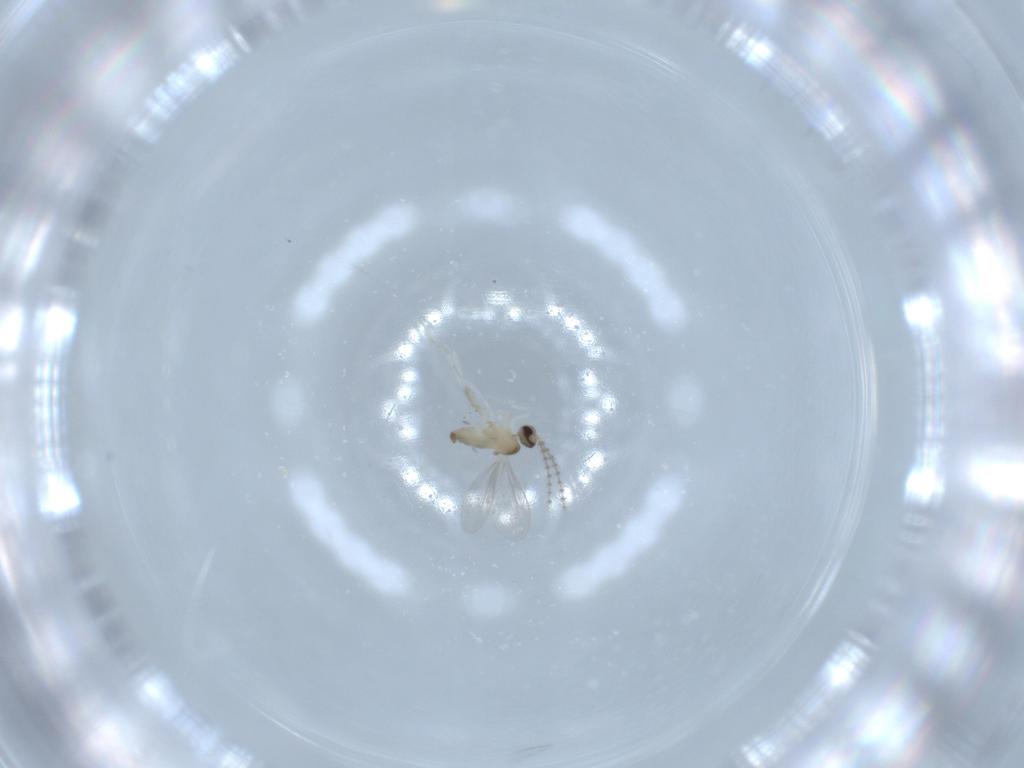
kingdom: Animalia
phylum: Arthropoda
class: Insecta
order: Diptera
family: Cecidomyiidae
